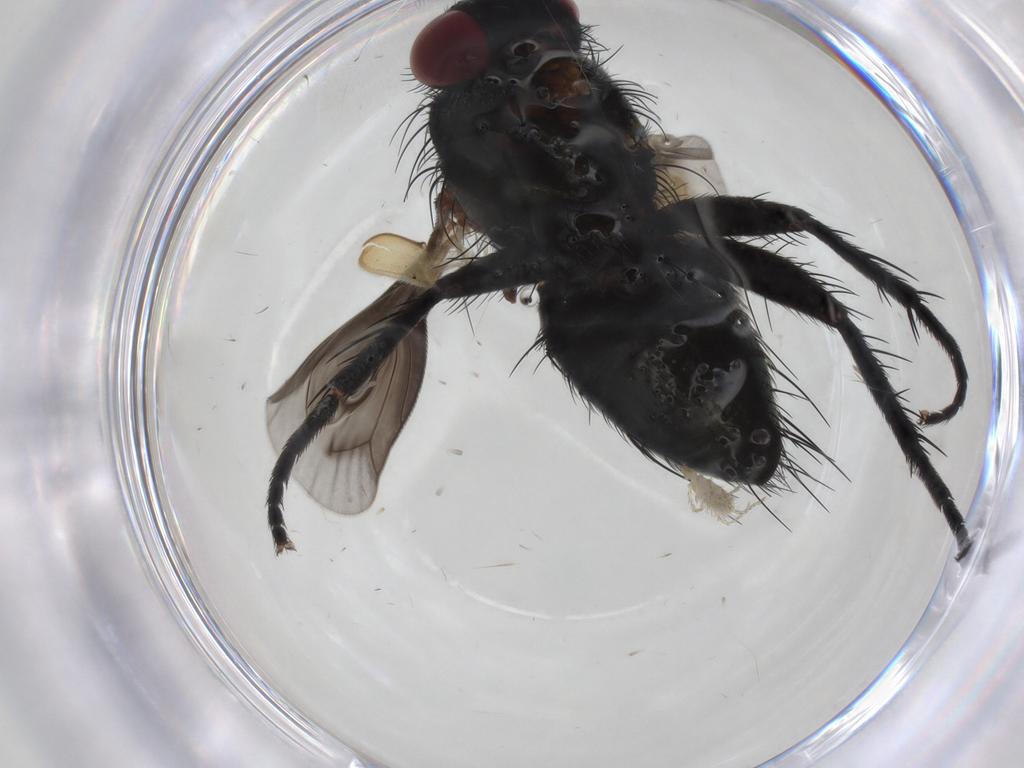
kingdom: Animalia
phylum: Arthropoda
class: Insecta
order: Diptera
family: Tachinidae
